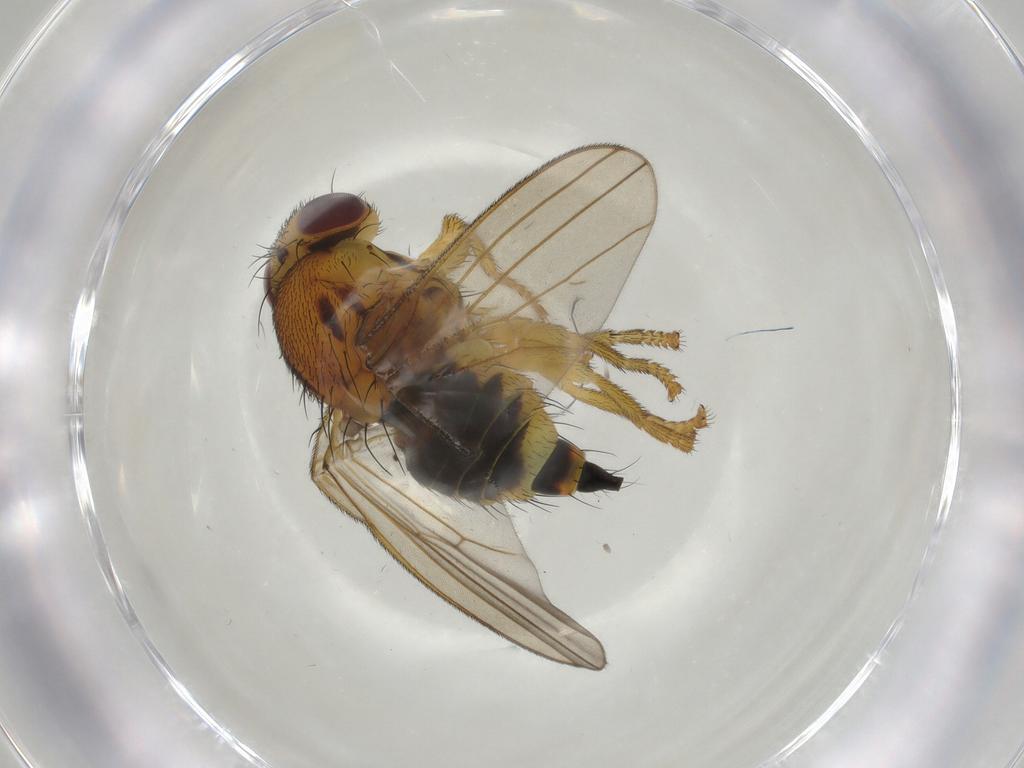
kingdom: Animalia
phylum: Arthropoda
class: Insecta
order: Diptera
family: Fergusoninidae
